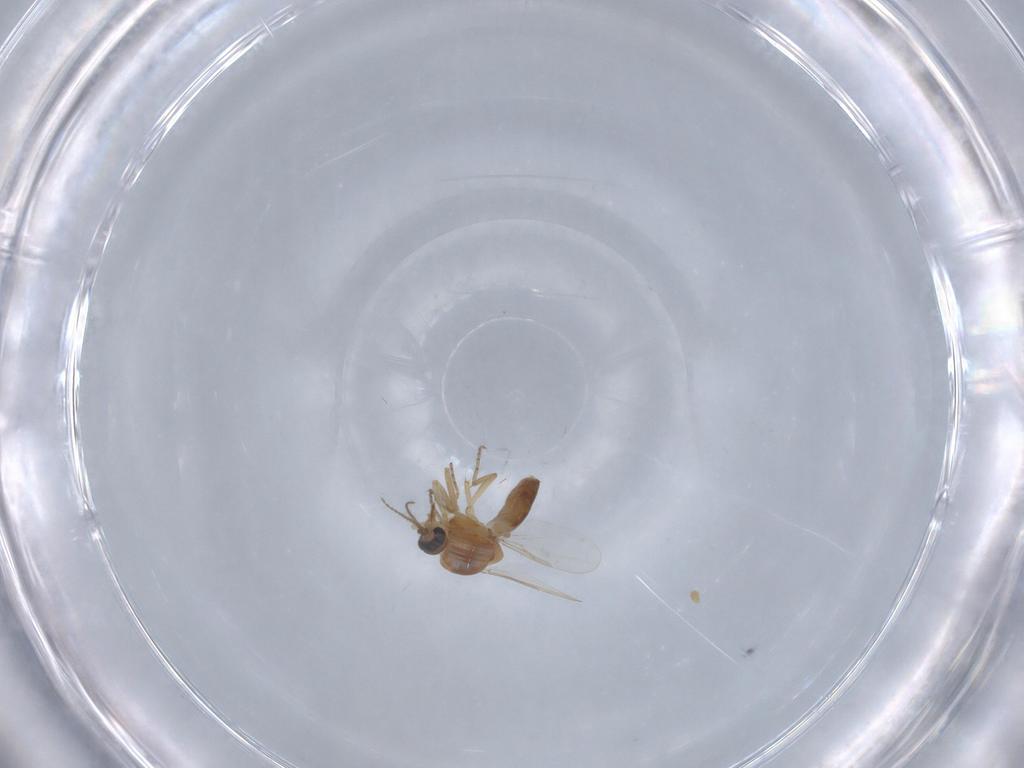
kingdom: Animalia
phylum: Arthropoda
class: Insecta
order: Diptera
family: Ceratopogonidae
